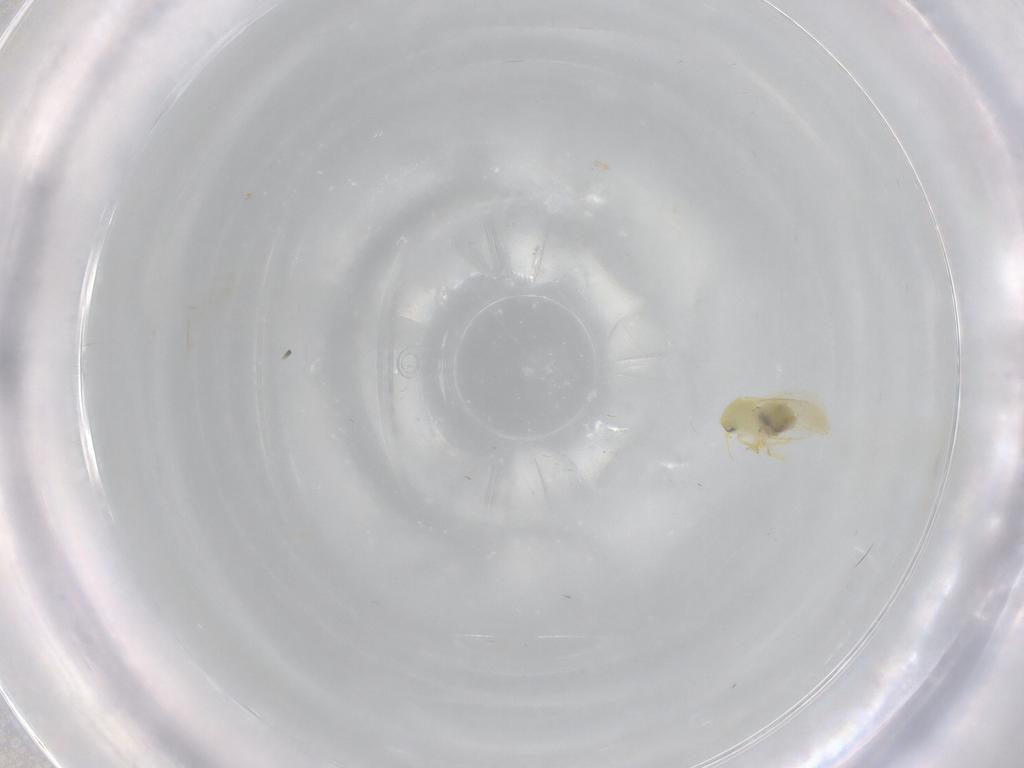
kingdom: Animalia
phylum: Arthropoda
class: Insecta
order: Hemiptera
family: Aleyrodidae
